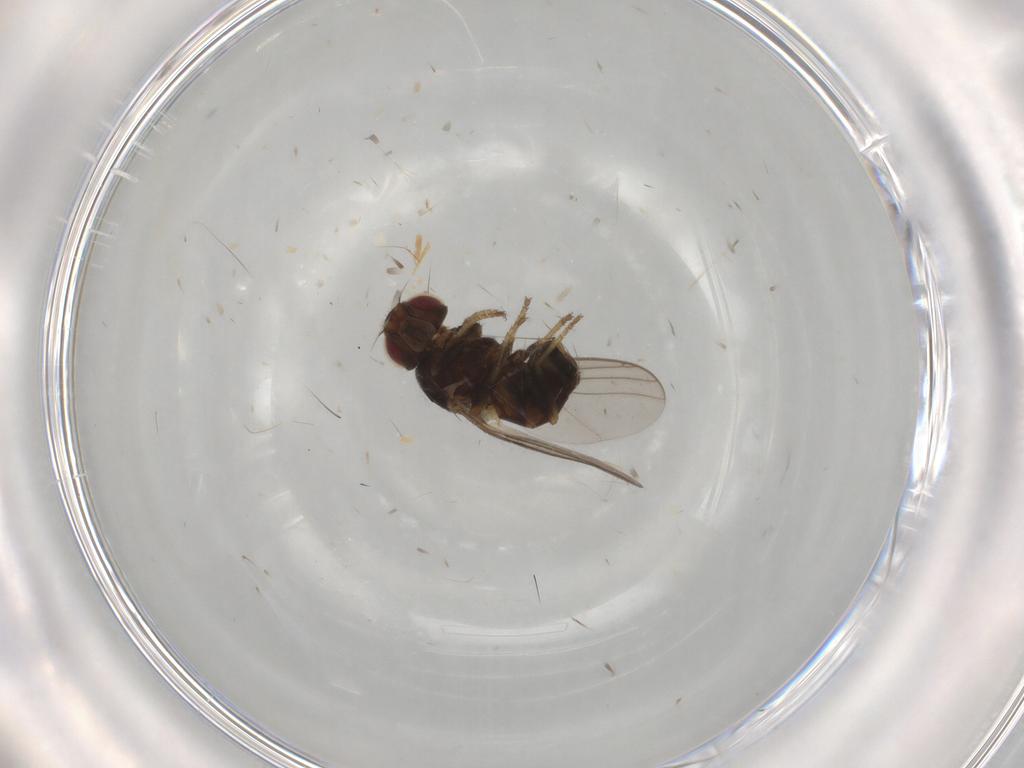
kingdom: Animalia
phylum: Arthropoda
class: Insecta
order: Diptera
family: Chloropidae
